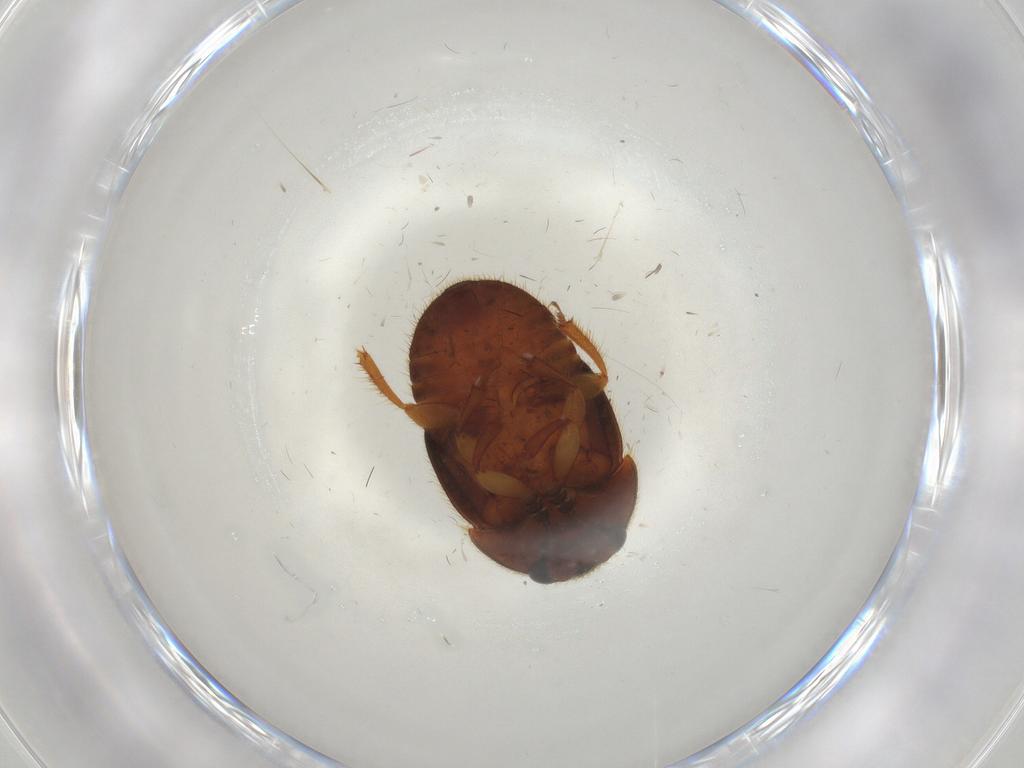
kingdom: Animalia
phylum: Arthropoda
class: Insecta
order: Coleoptera
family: Nitidulidae
